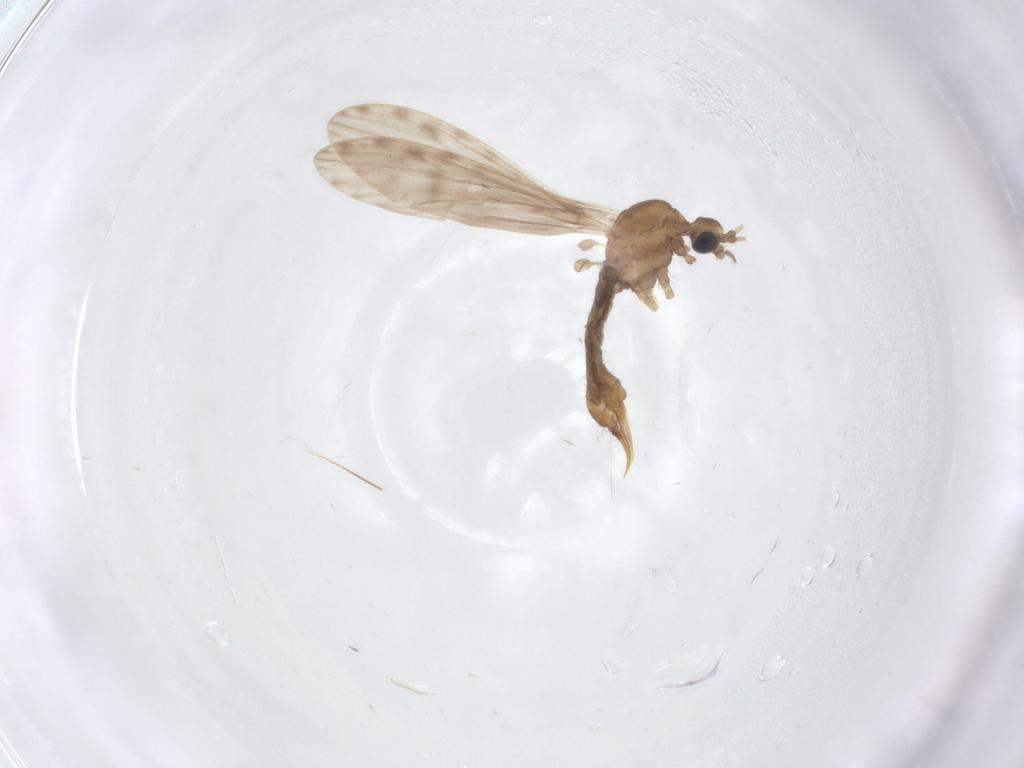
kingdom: Animalia
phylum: Arthropoda
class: Insecta
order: Diptera
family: Limoniidae
